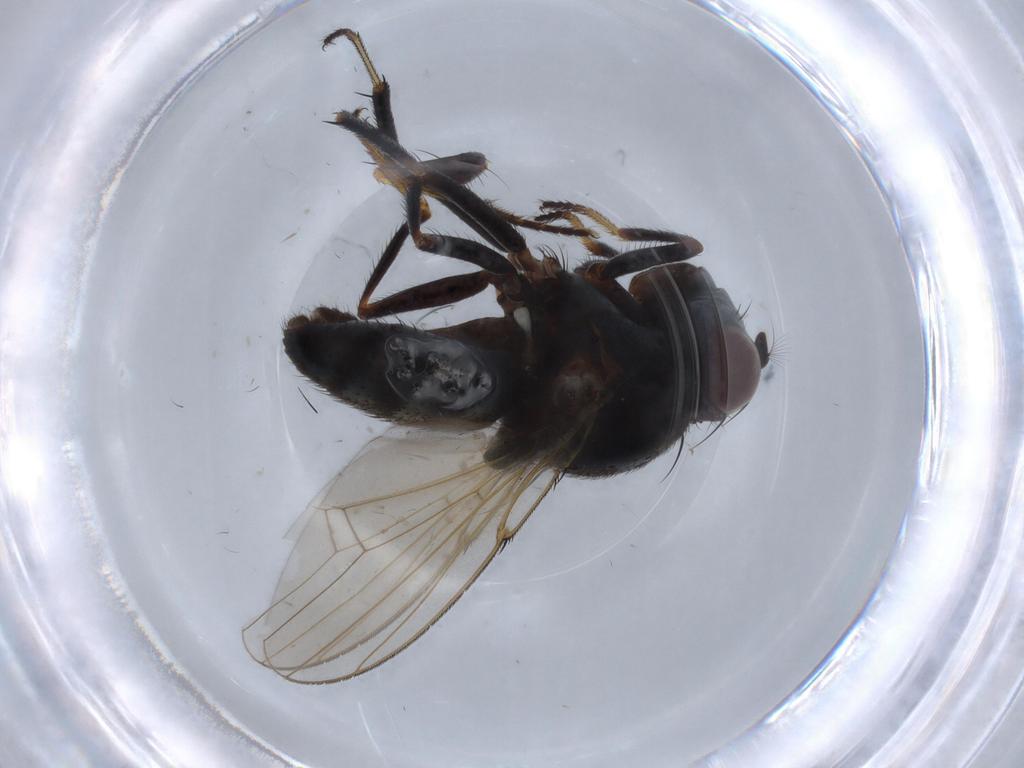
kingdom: Animalia
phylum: Arthropoda
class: Insecta
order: Diptera
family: Ephydridae
